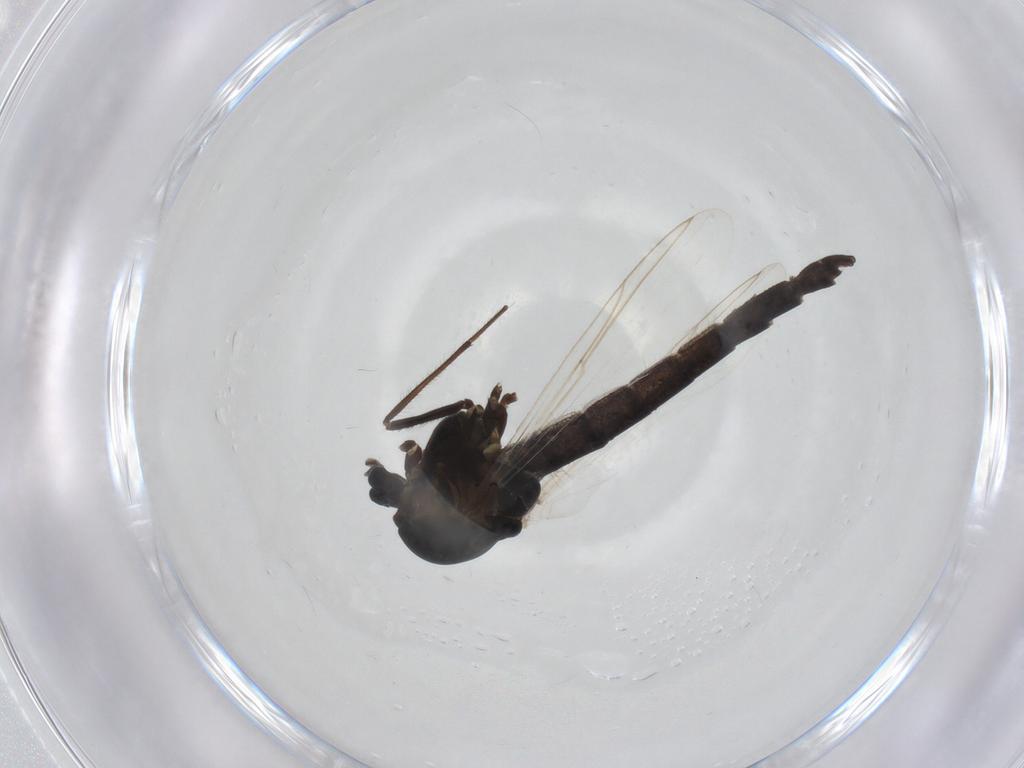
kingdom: Animalia
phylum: Arthropoda
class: Insecta
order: Diptera
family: Chironomidae
